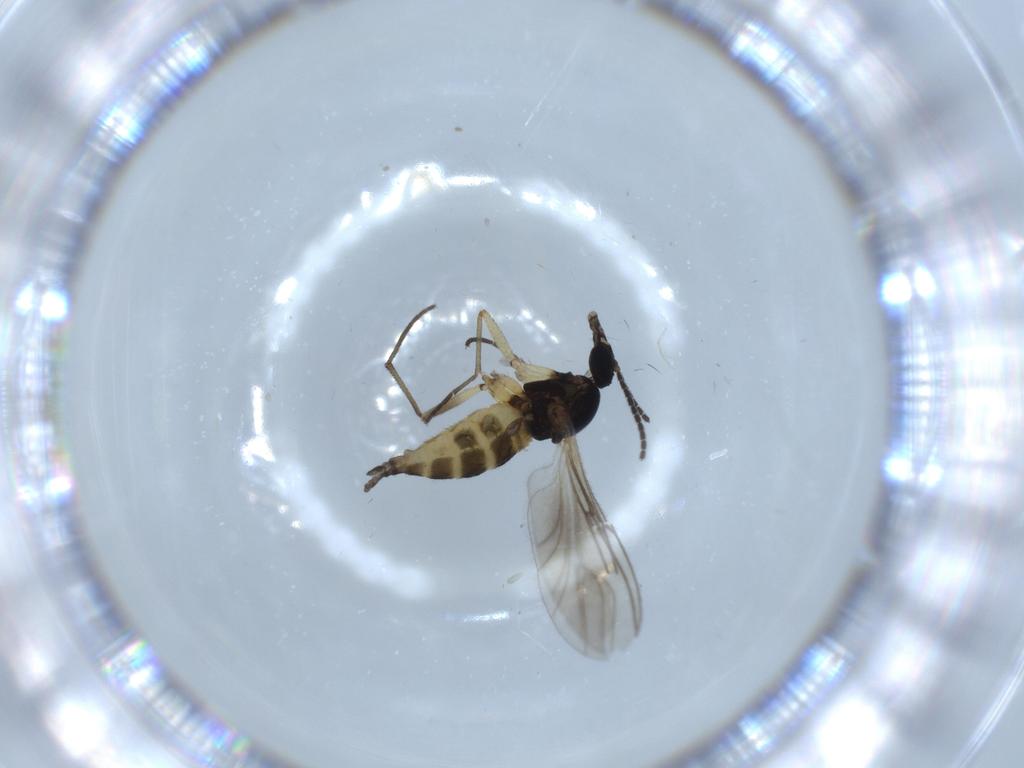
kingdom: Animalia
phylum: Arthropoda
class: Insecta
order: Diptera
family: Sciaridae
